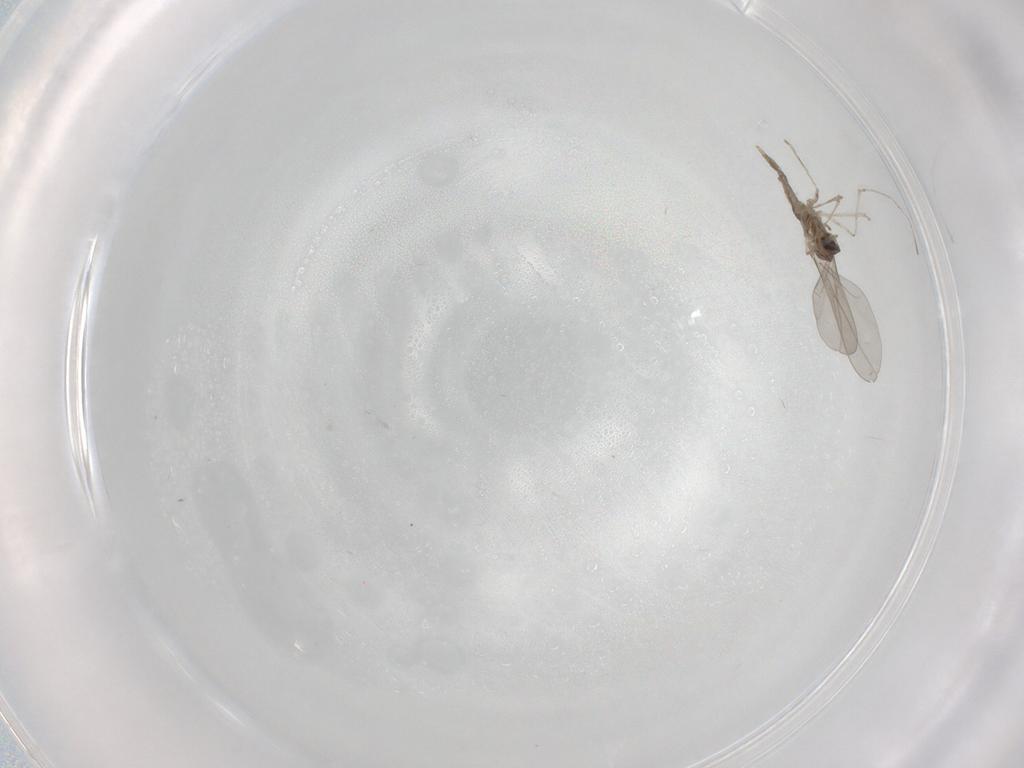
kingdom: Animalia
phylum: Arthropoda
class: Insecta
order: Diptera
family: Cecidomyiidae
